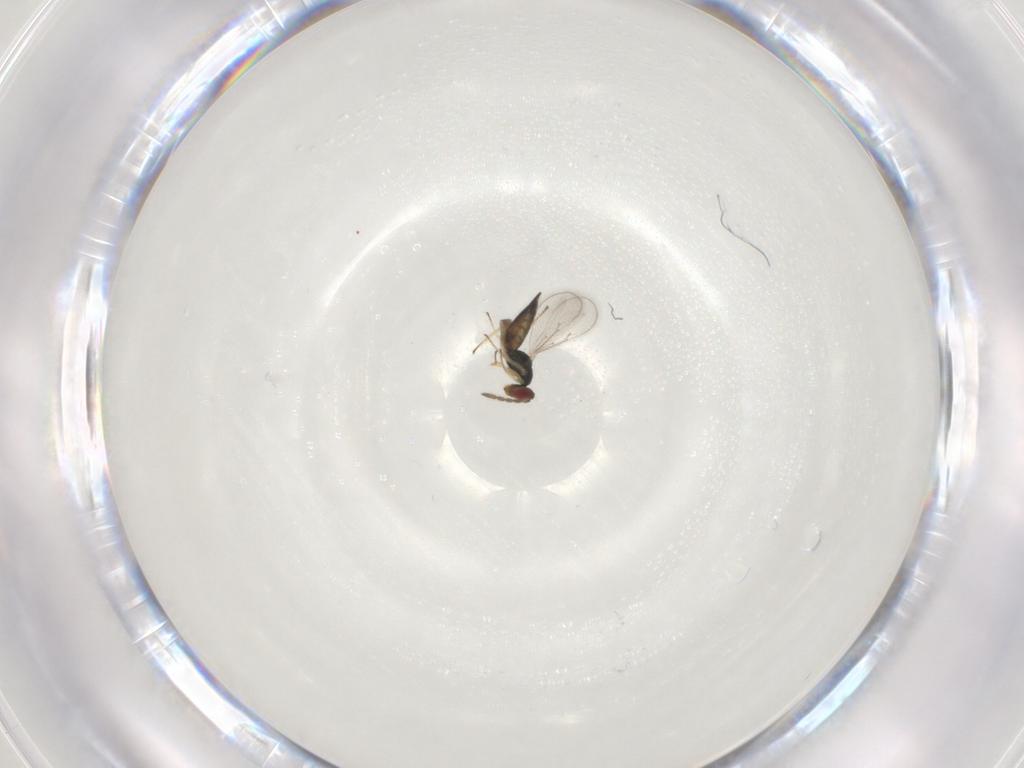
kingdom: Animalia
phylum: Arthropoda
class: Insecta
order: Hymenoptera
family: Eulophidae
